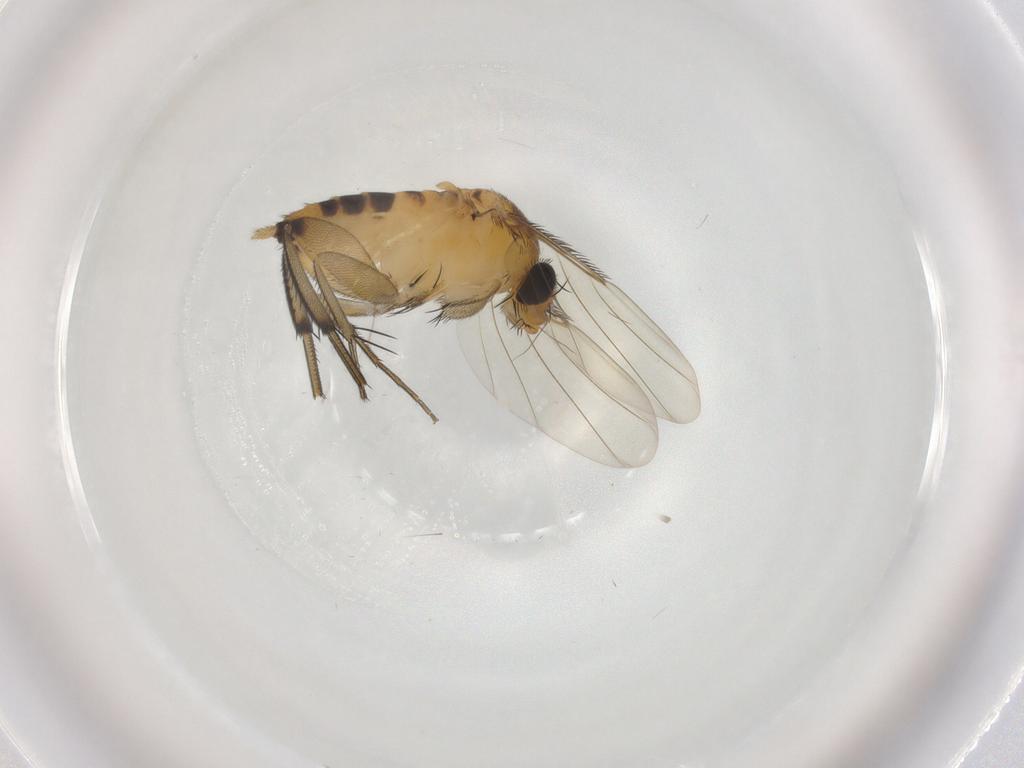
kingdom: Animalia
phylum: Arthropoda
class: Insecta
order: Diptera
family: Phoridae
